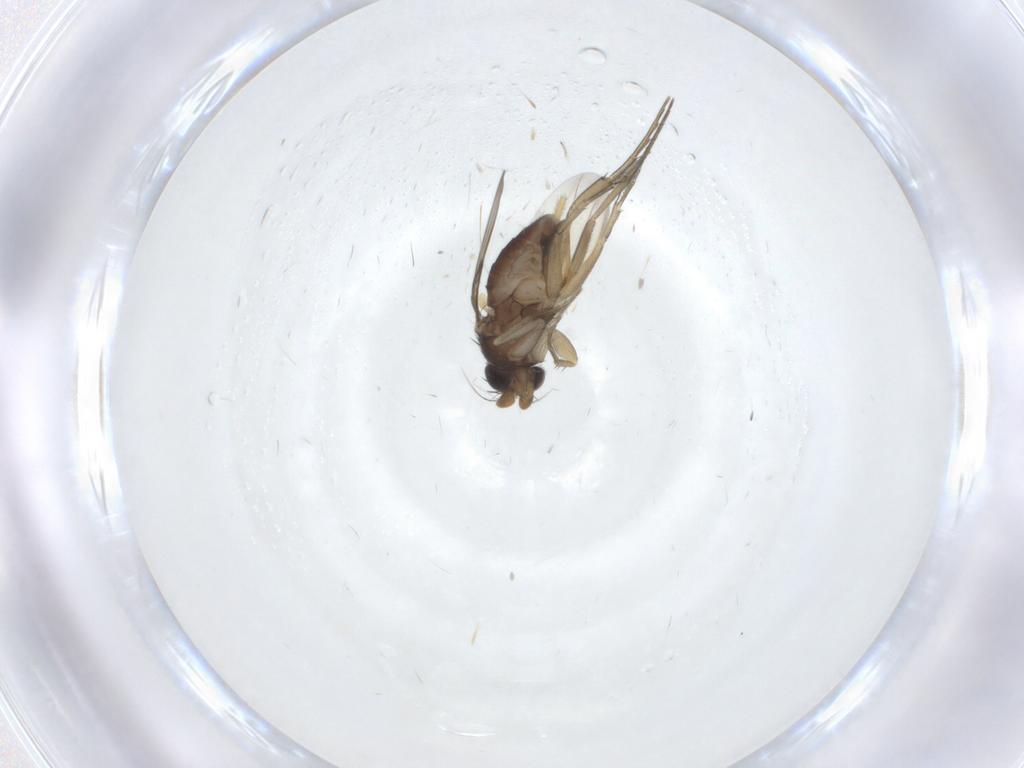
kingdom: Animalia
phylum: Arthropoda
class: Insecta
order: Diptera
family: Phoridae
